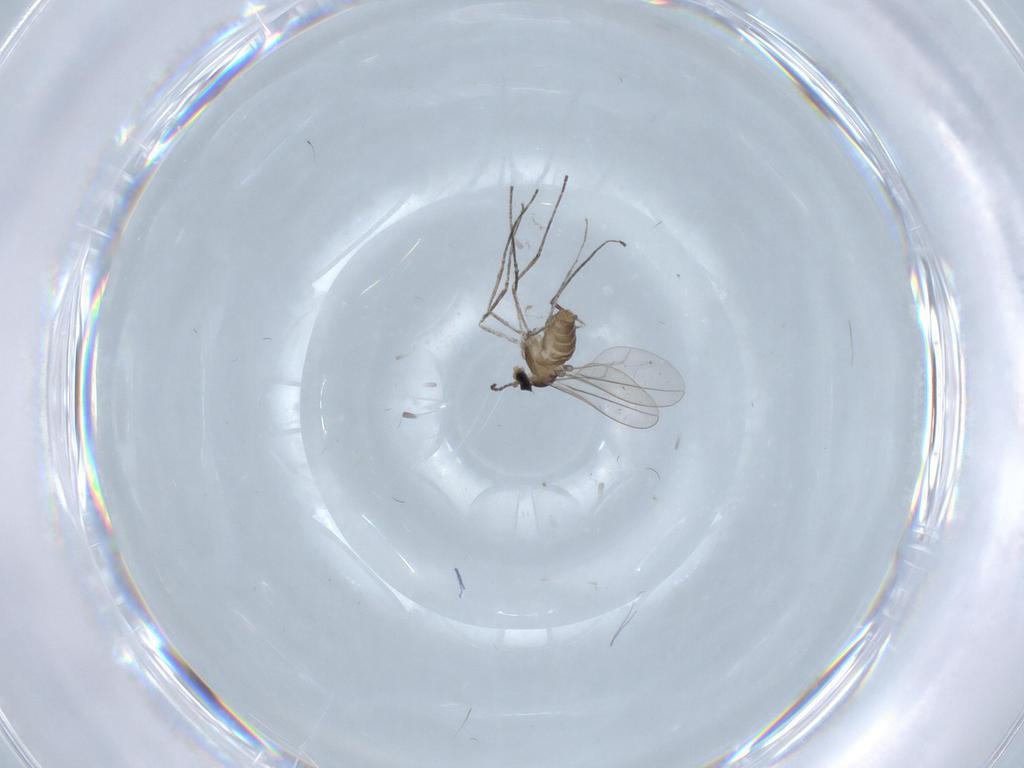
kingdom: Animalia
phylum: Arthropoda
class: Insecta
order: Diptera
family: Cecidomyiidae
